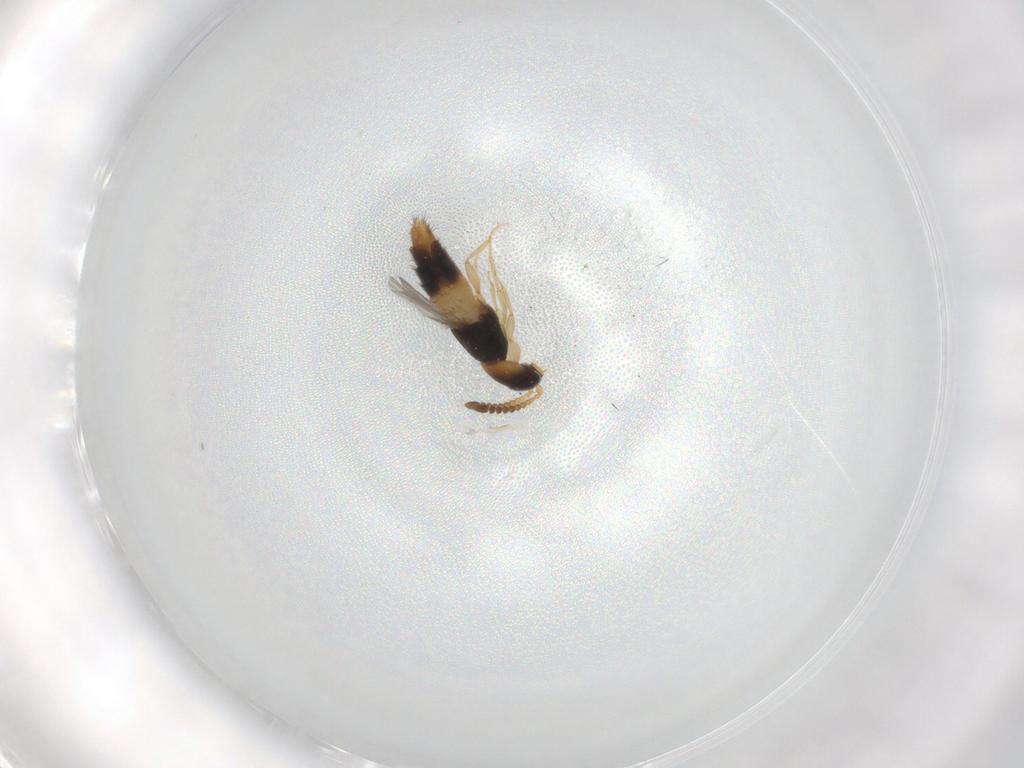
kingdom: Animalia
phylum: Arthropoda
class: Insecta
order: Coleoptera
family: Staphylinidae
